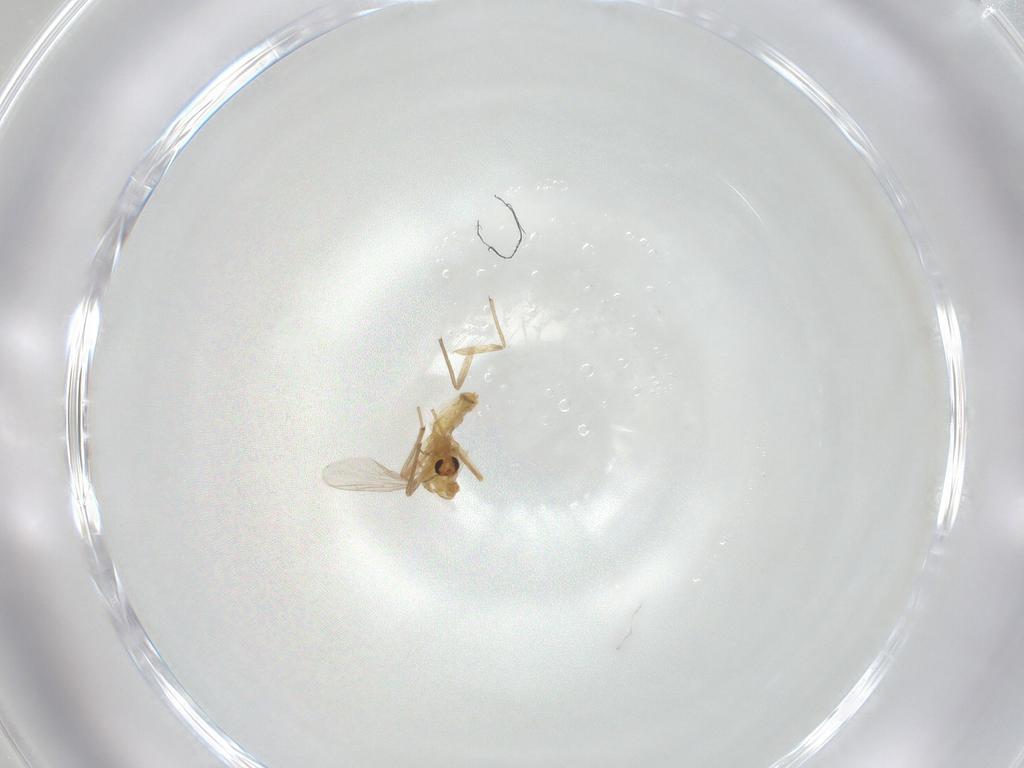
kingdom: Animalia
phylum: Arthropoda
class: Insecta
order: Diptera
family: Chironomidae
